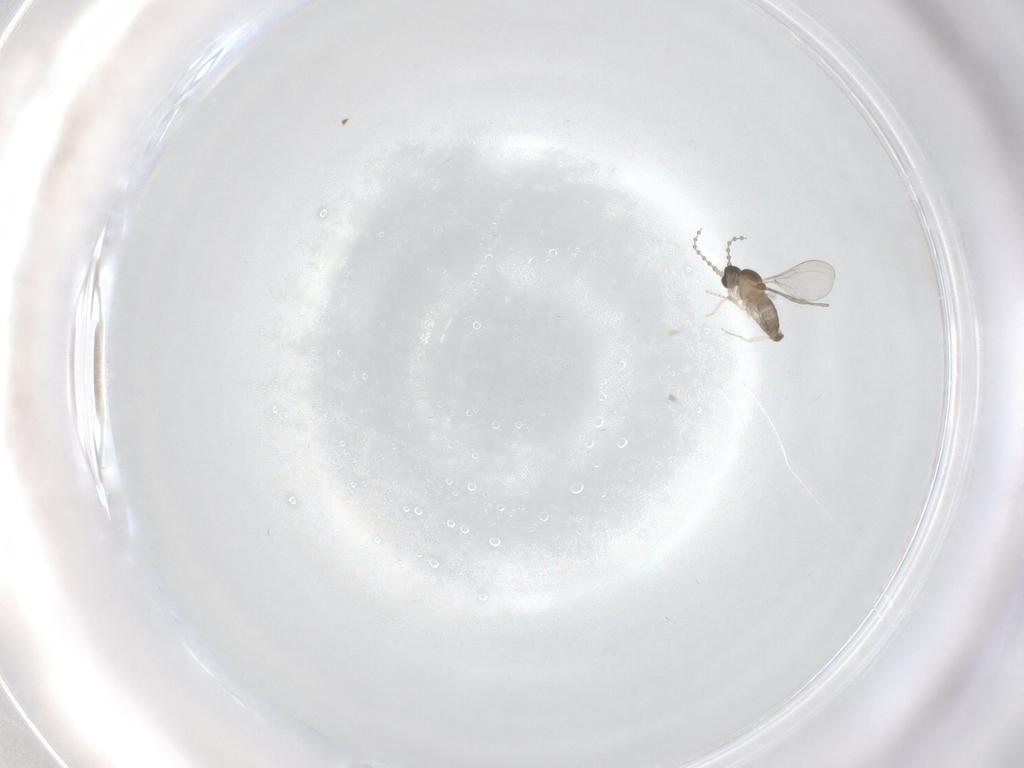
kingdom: Animalia
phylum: Arthropoda
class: Insecta
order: Diptera
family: Cecidomyiidae
